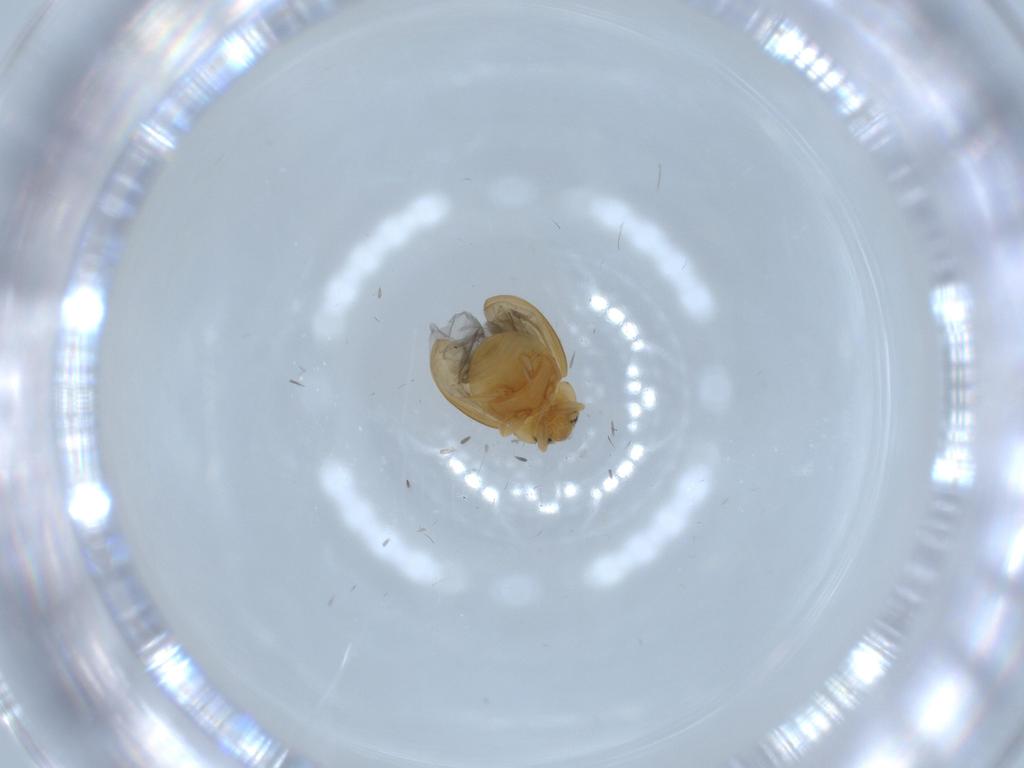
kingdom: Animalia
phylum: Arthropoda
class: Insecta
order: Coleoptera
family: Coccinellidae
